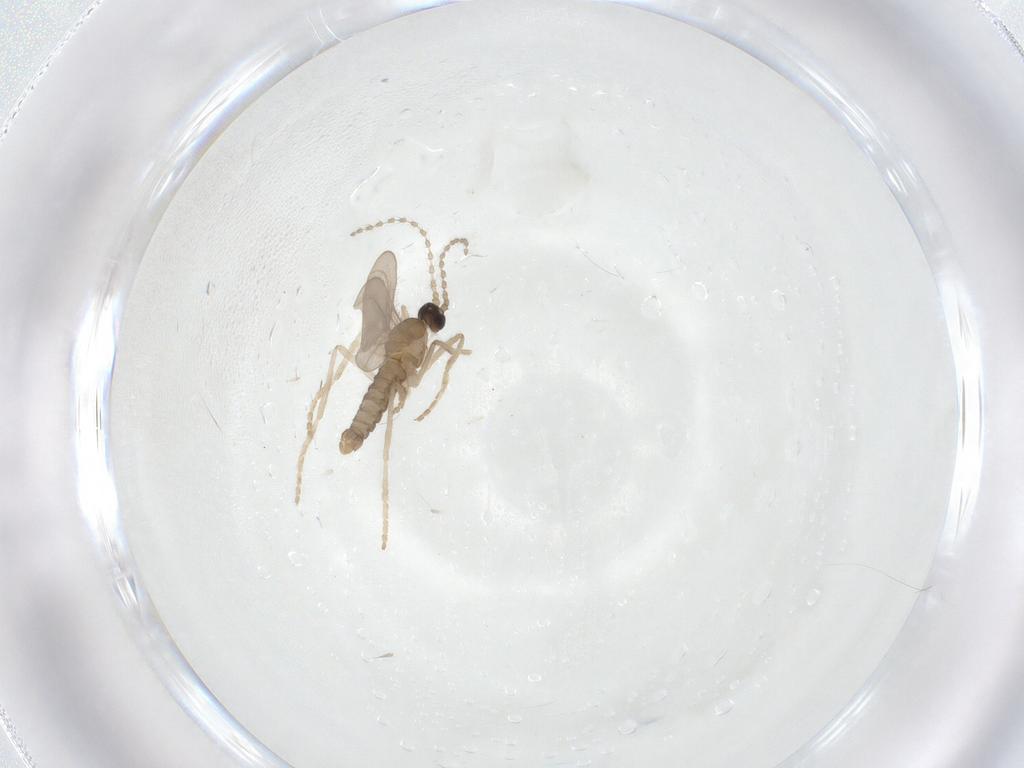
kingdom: Animalia
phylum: Arthropoda
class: Insecta
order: Diptera
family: Cecidomyiidae
